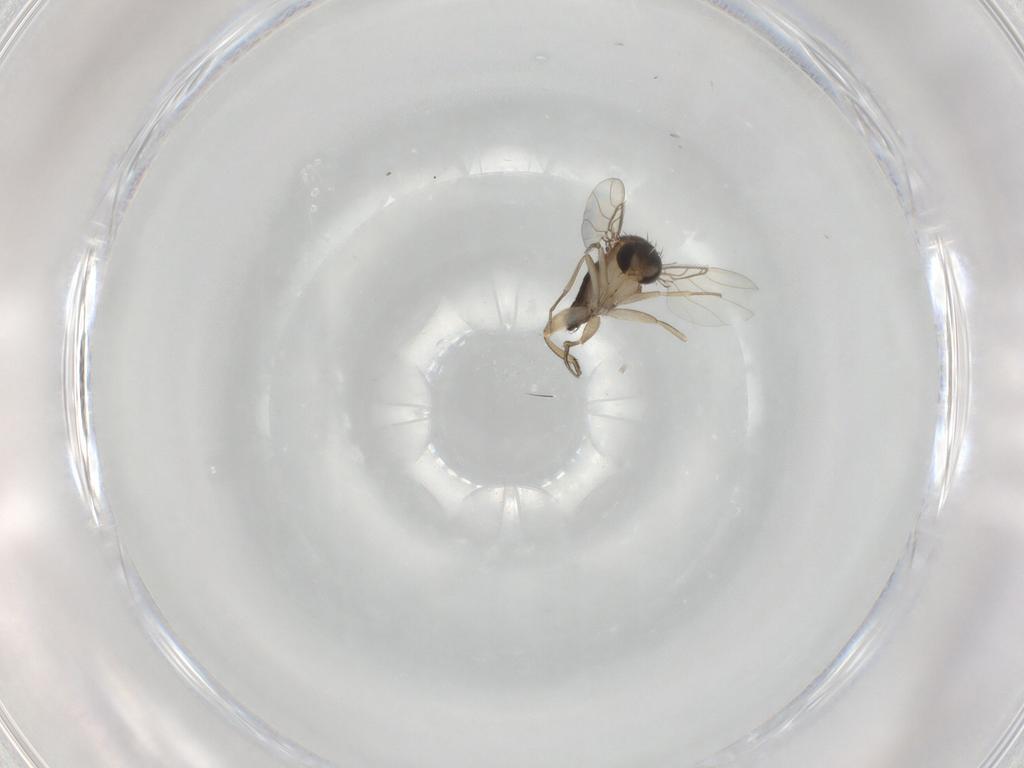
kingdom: Animalia
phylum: Arthropoda
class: Insecta
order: Diptera
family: Phoridae
